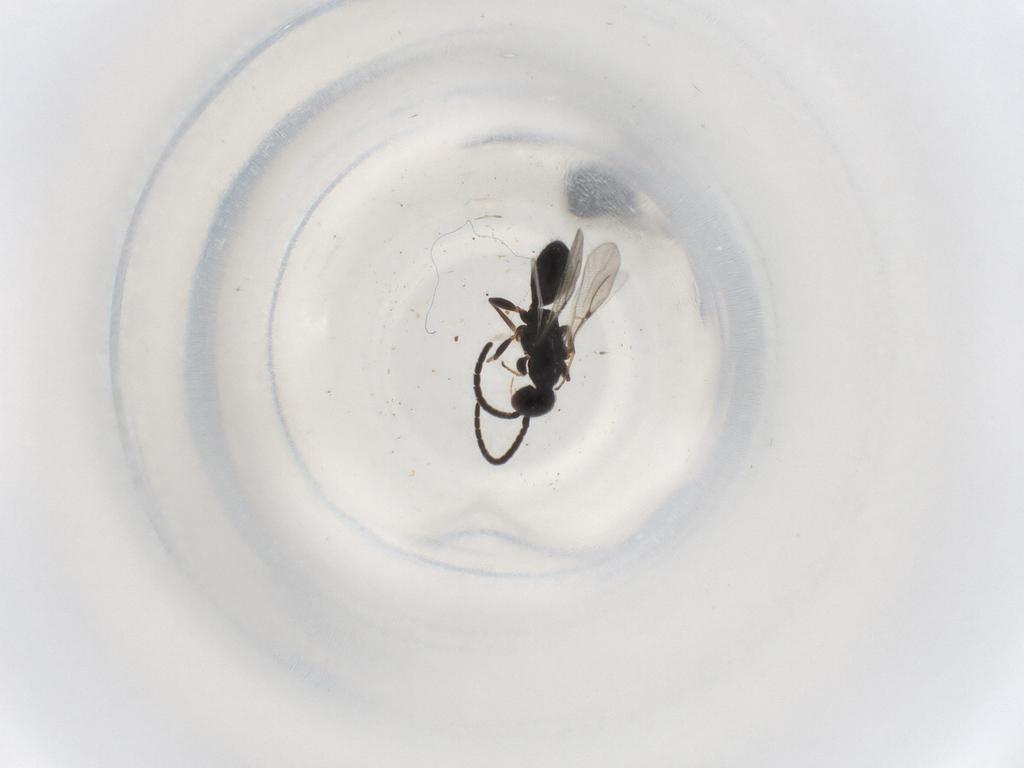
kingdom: Animalia
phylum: Arthropoda
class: Insecta
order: Hymenoptera
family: Bethylidae
